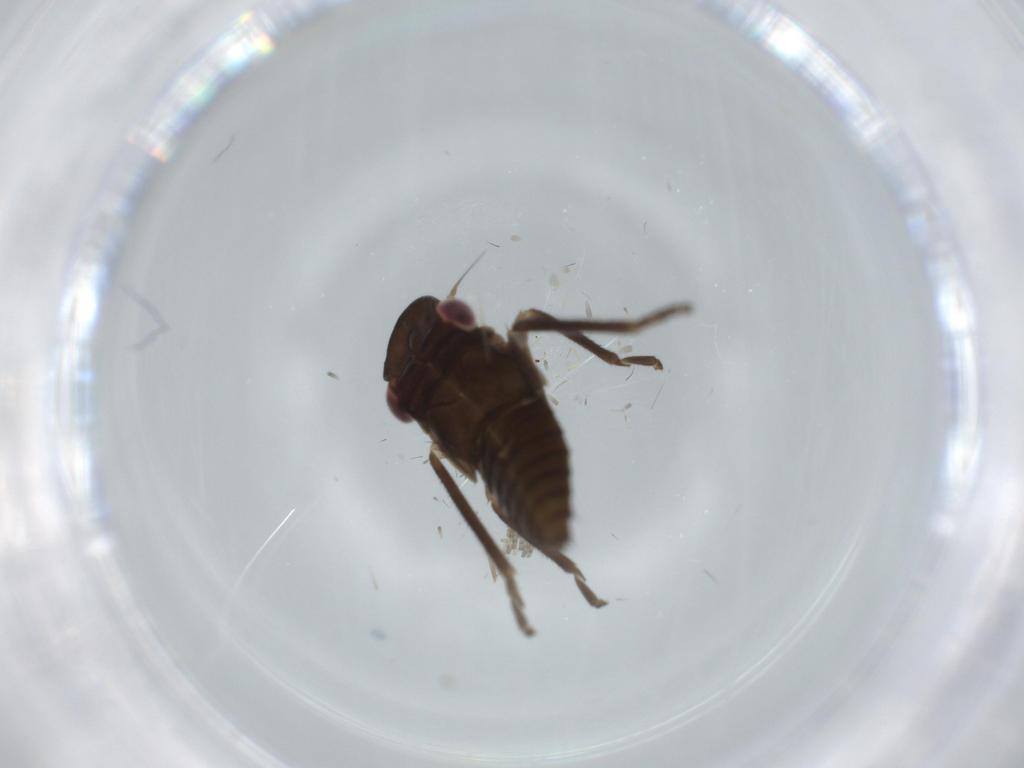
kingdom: Animalia
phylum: Arthropoda
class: Insecta
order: Hemiptera
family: Cicadellidae
